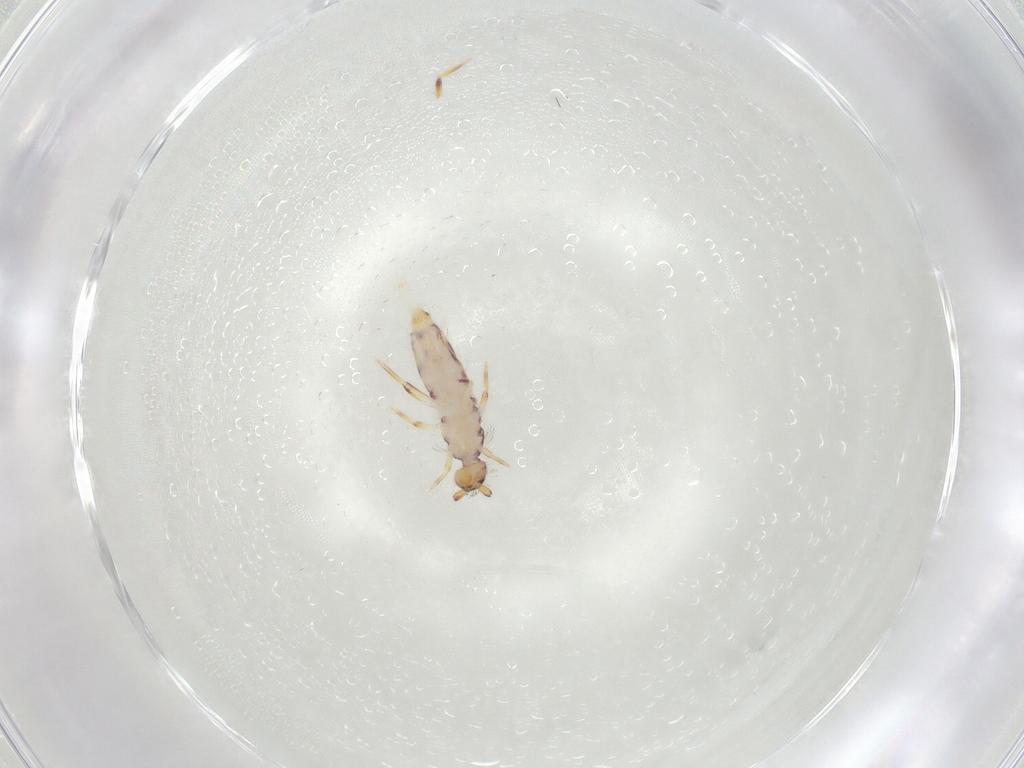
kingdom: Animalia
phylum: Arthropoda
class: Collembola
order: Entomobryomorpha
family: Entomobryidae
